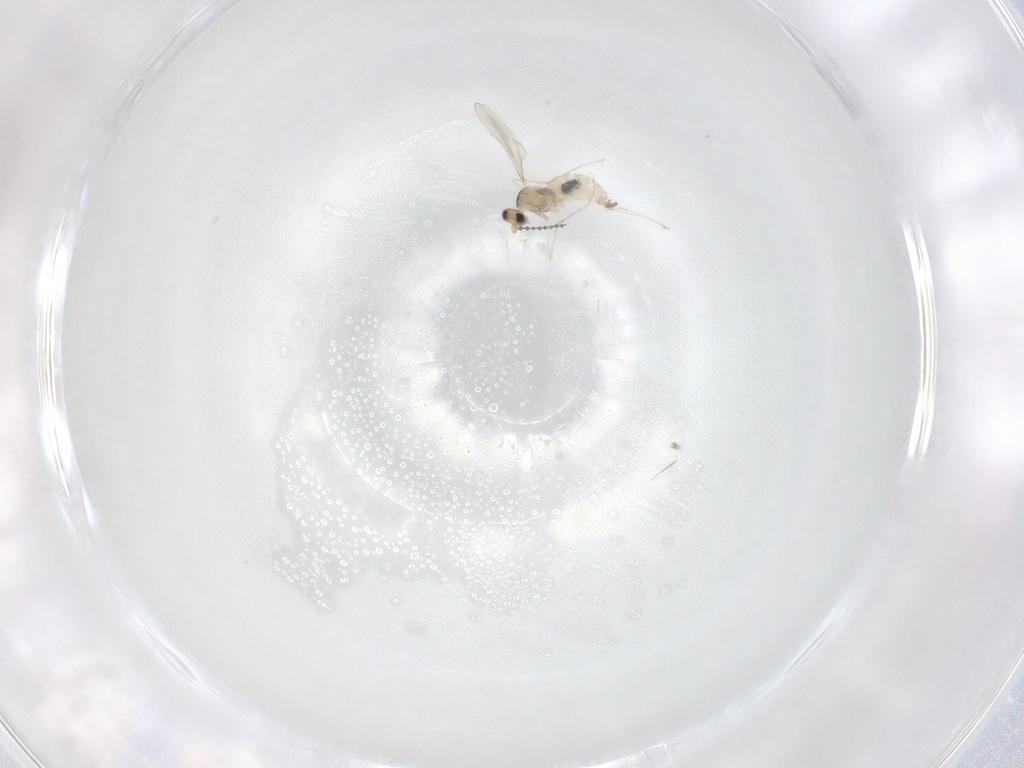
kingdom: Animalia
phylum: Arthropoda
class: Insecta
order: Diptera
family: Cecidomyiidae
